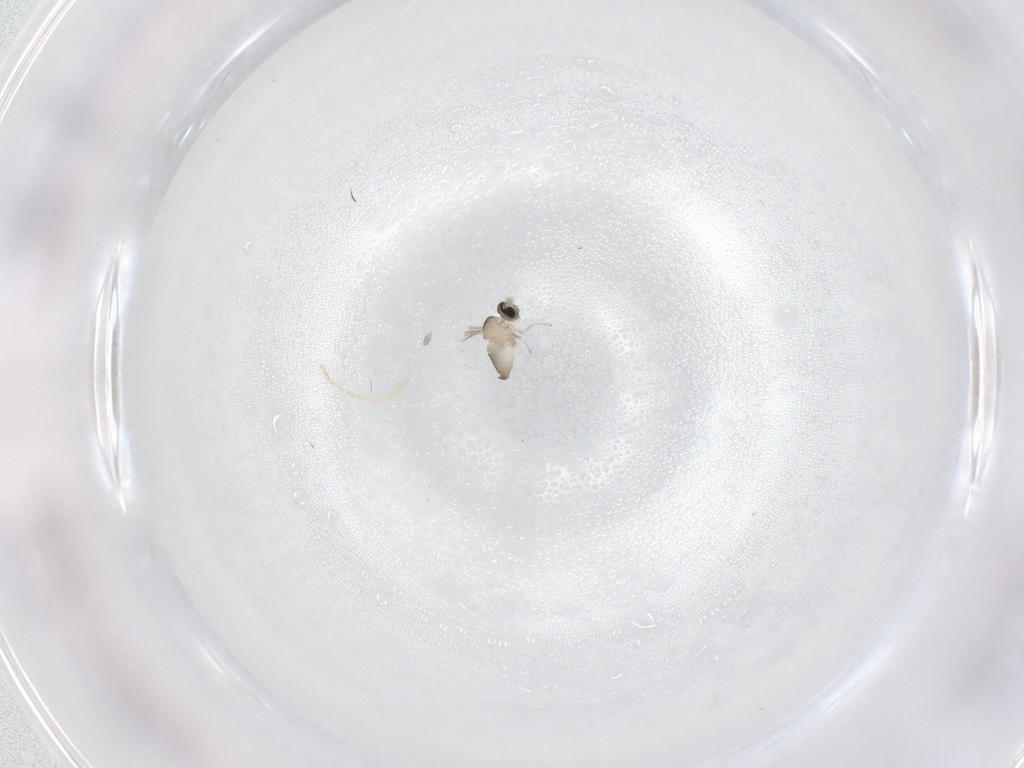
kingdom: Animalia
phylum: Arthropoda
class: Insecta
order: Diptera
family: Cecidomyiidae
